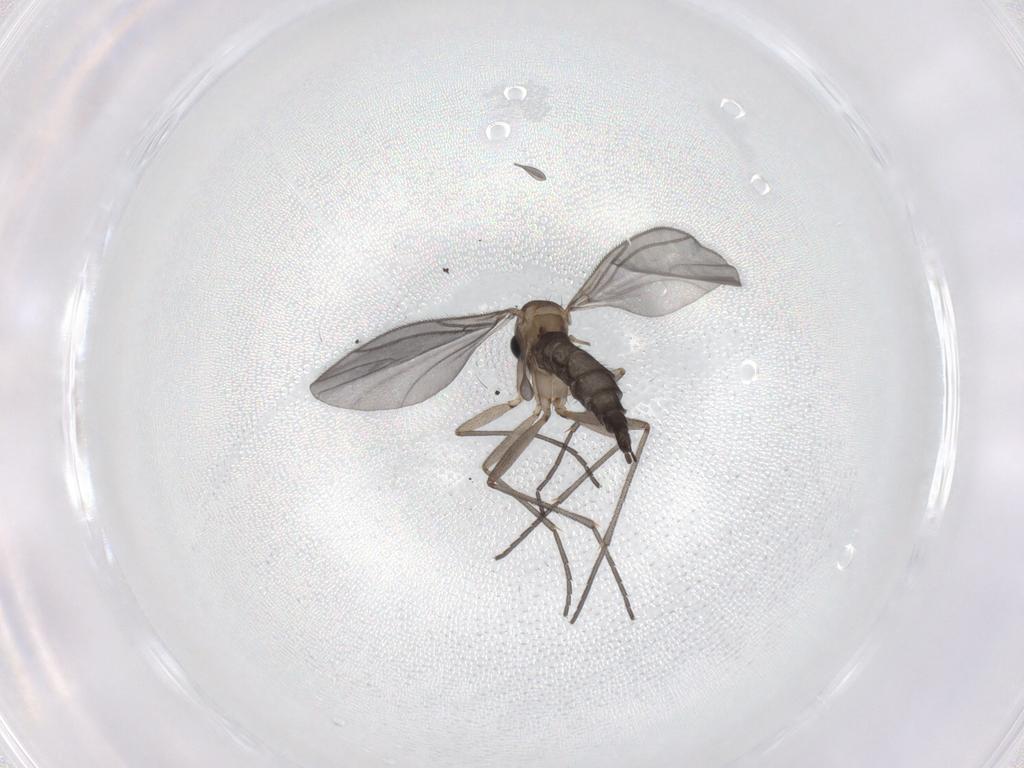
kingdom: Animalia
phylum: Arthropoda
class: Insecta
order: Diptera
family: Sciaridae
